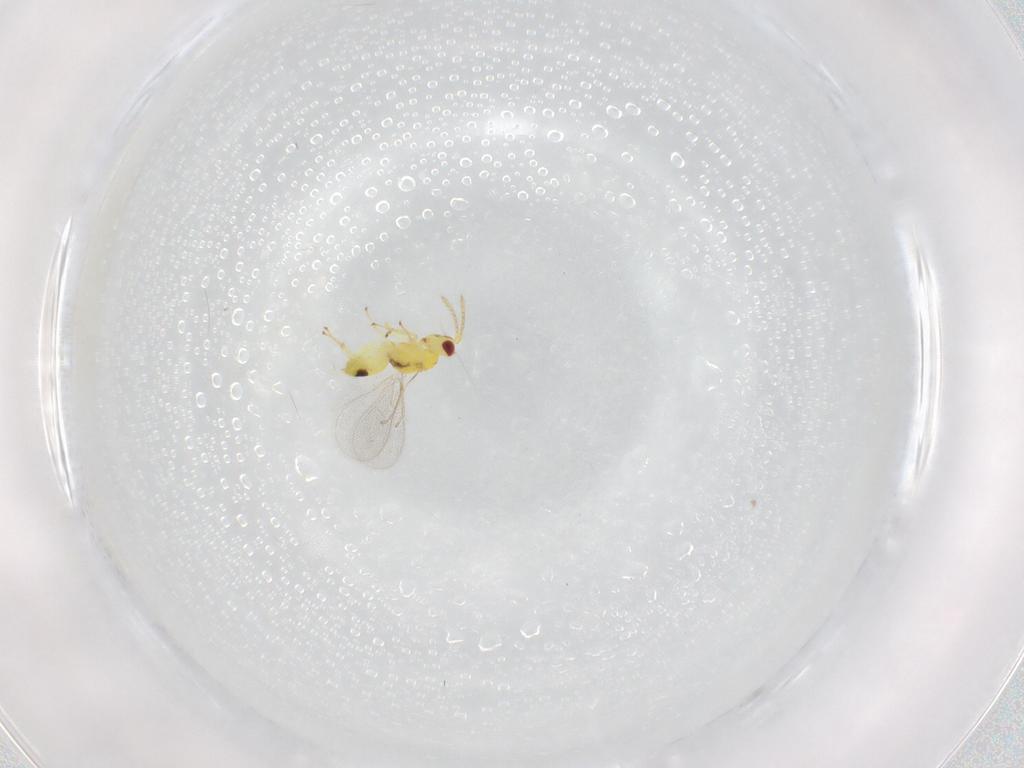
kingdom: Animalia
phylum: Arthropoda
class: Insecta
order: Hymenoptera
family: Eulophidae
